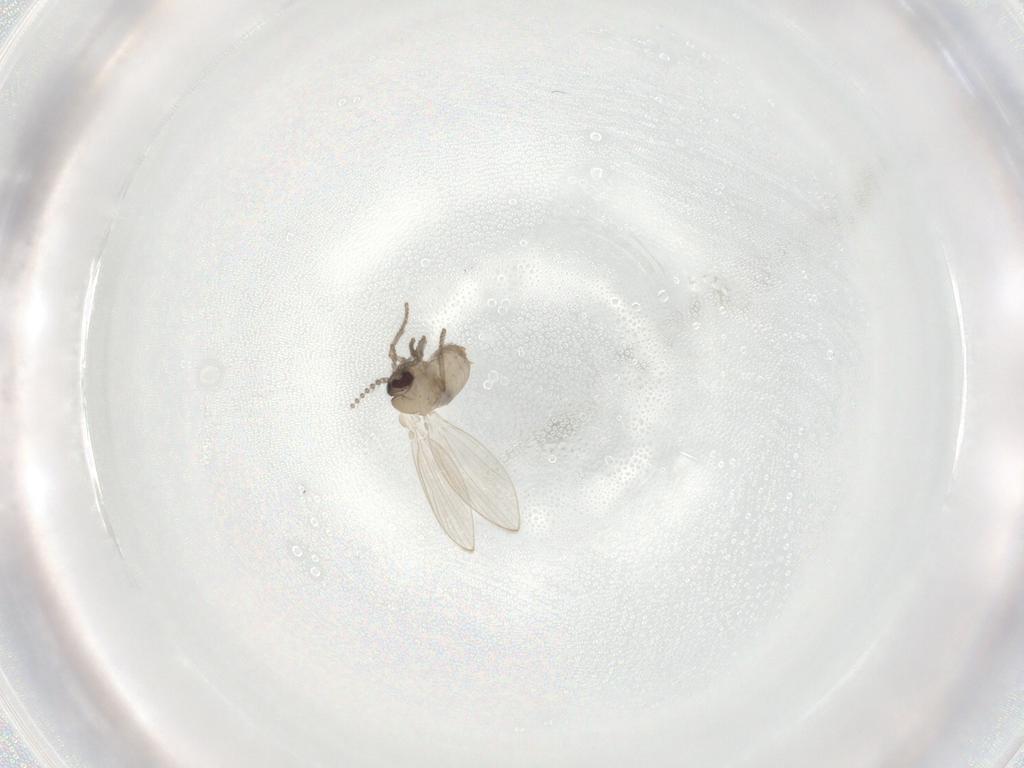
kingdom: Animalia
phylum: Arthropoda
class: Insecta
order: Diptera
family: Psychodidae
